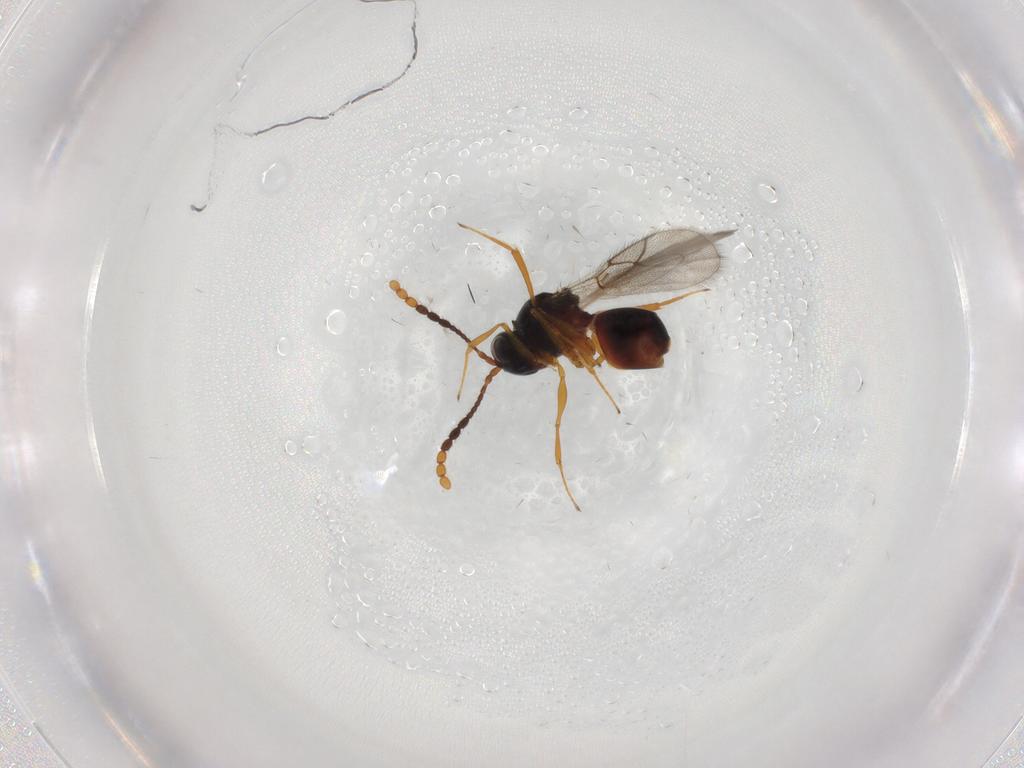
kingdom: Animalia
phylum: Arthropoda
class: Insecta
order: Hymenoptera
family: Figitidae
